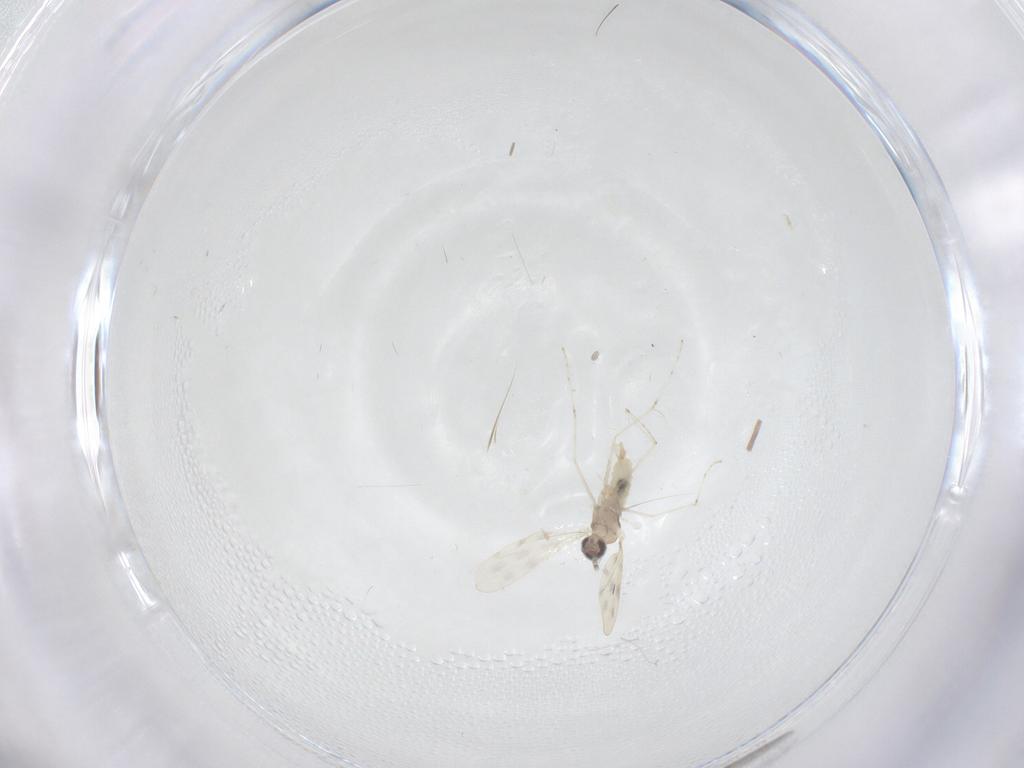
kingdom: Animalia
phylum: Arthropoda
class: Insecta
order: Diptera
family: Cecidomyiidae
